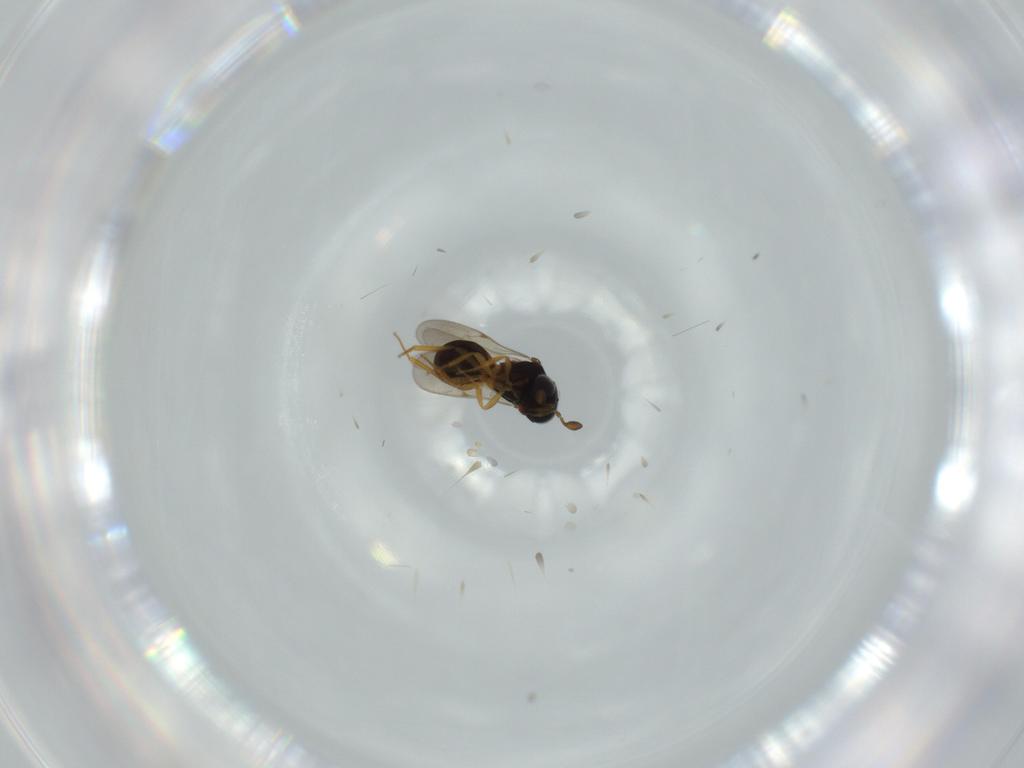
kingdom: Animalia
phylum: Arthropoda
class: Insecta
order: Hymenoptera
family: Scelionidae
